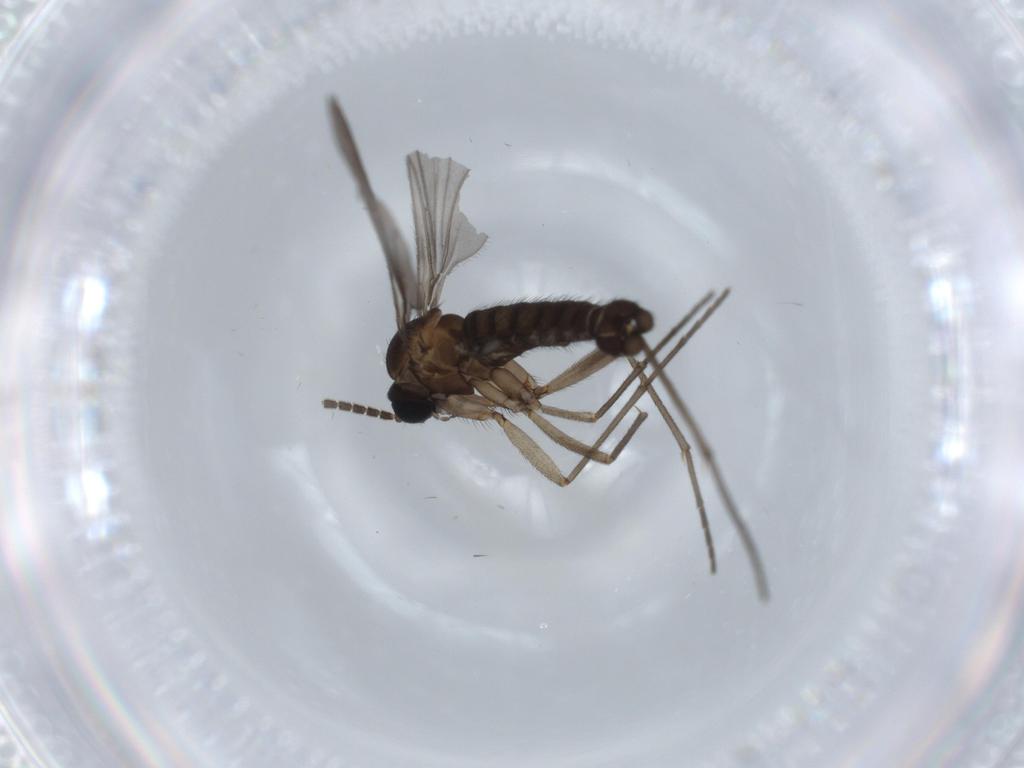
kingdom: Animalia
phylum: Arthropoda
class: Insecta
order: Diptera
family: Sciaridae
